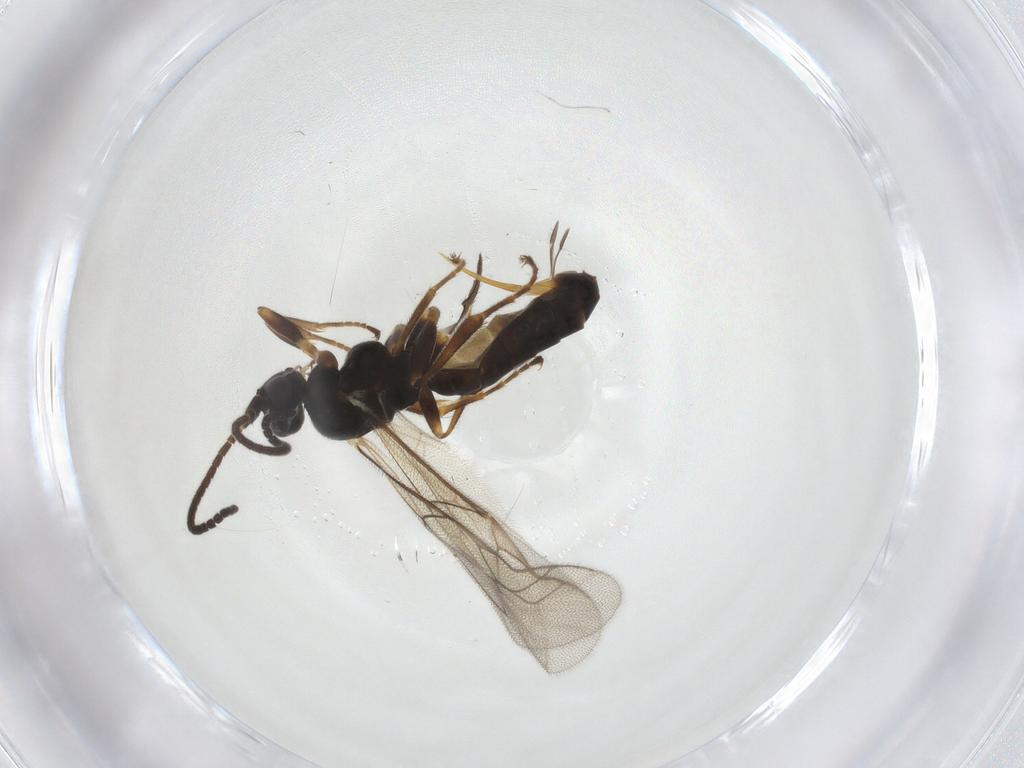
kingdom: Animalia
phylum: Arthropoda
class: Insecta
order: Hymenoptera
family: Ichneumonidae
